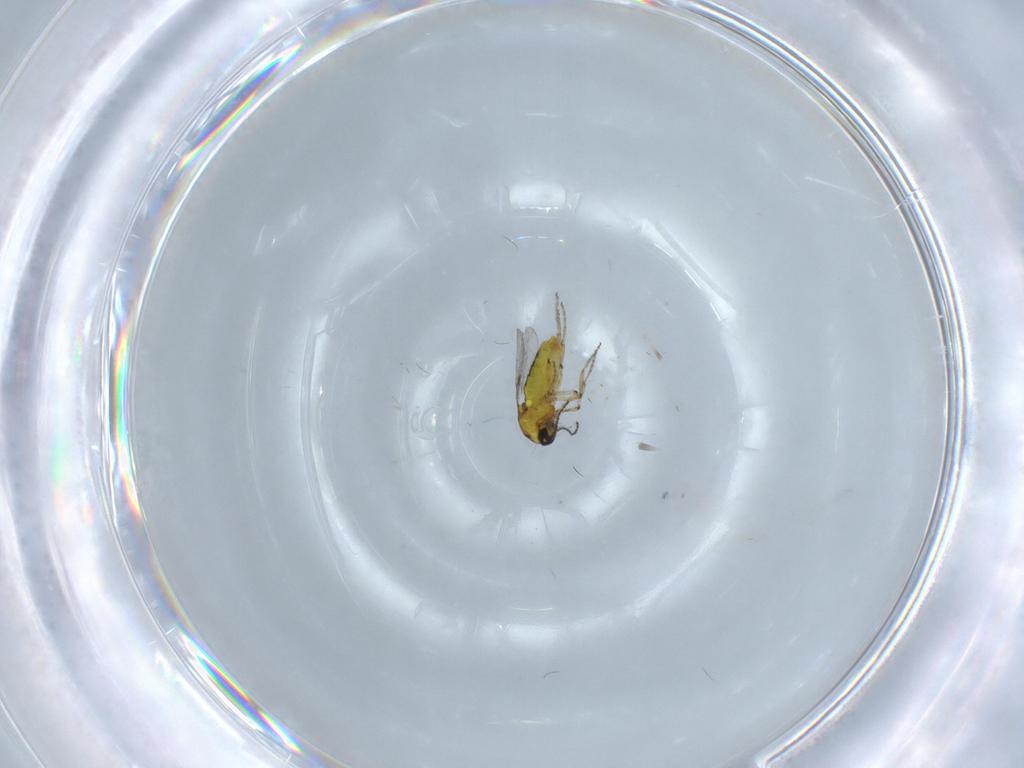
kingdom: Animalia
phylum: Arthropoda
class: Insecta
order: Diptera
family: Ceratopogonidae
